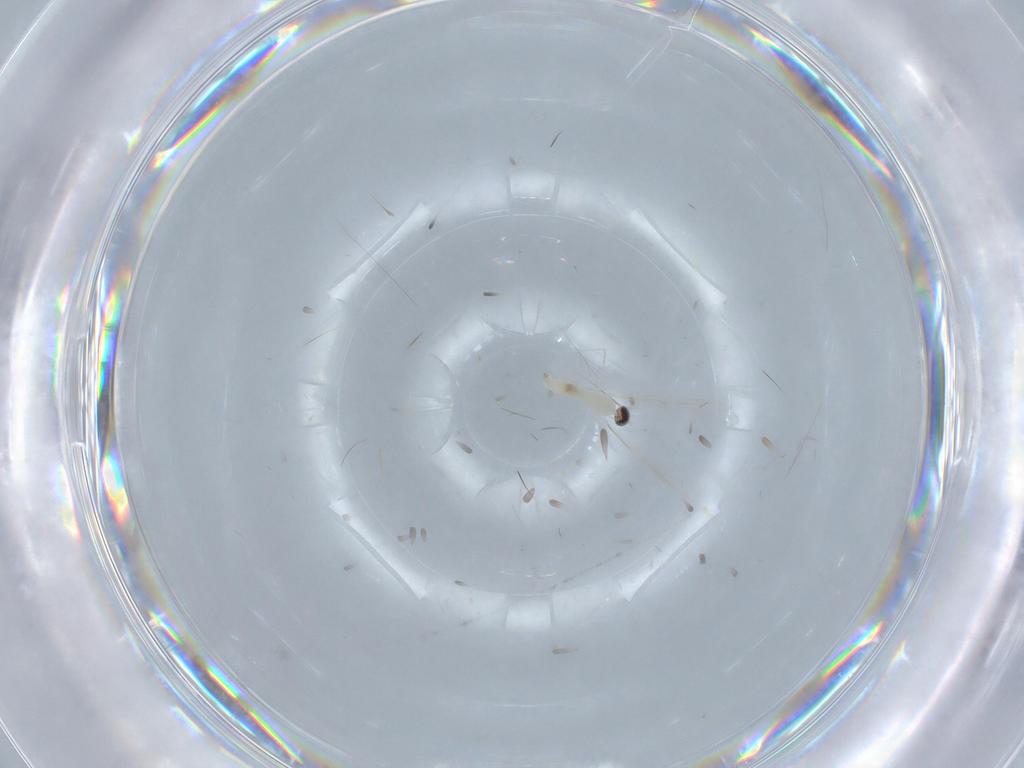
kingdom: Animalia
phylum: Arthropoda
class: Insecta
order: Diptera
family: Cecidomyiidae
